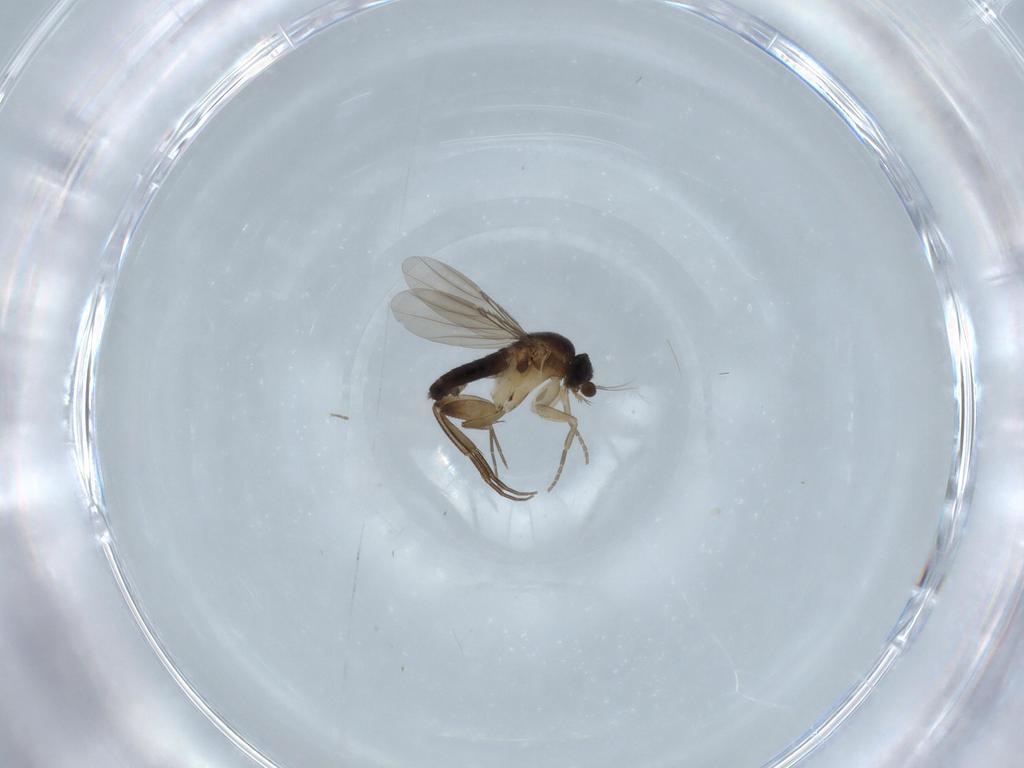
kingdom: Animalia
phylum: Arthropoda
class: Insecta
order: Diptera
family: Phoridae
